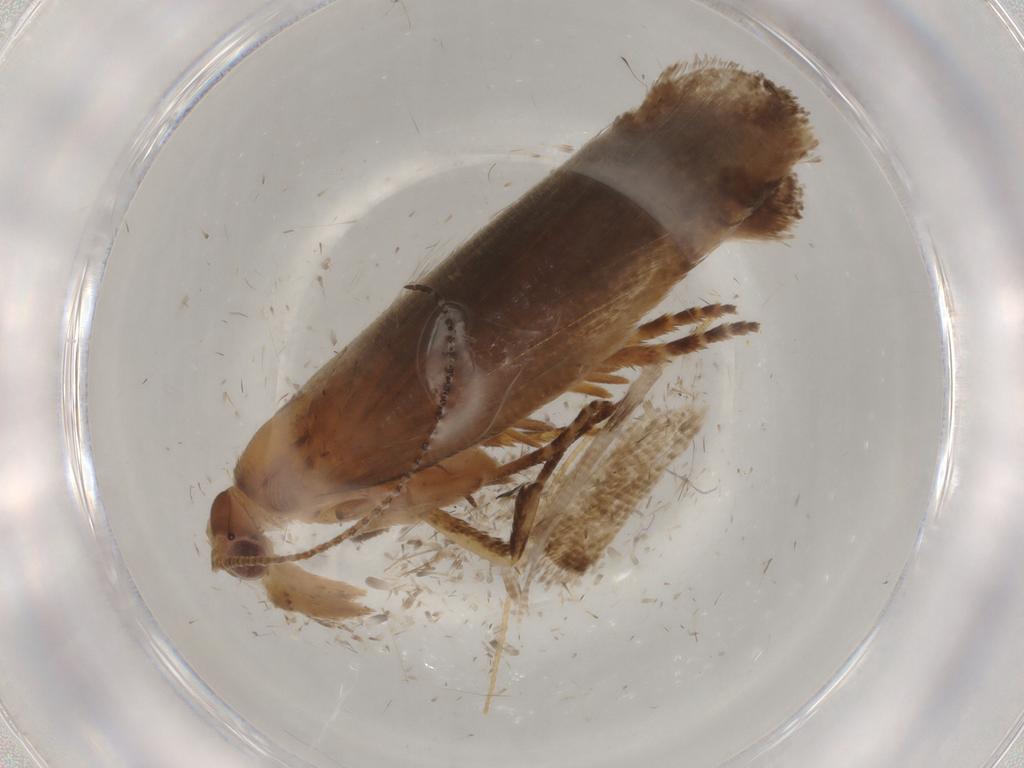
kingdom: Animalia
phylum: Arthropoda
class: Insecta
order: Lepidoptera
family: Gelechiidae
